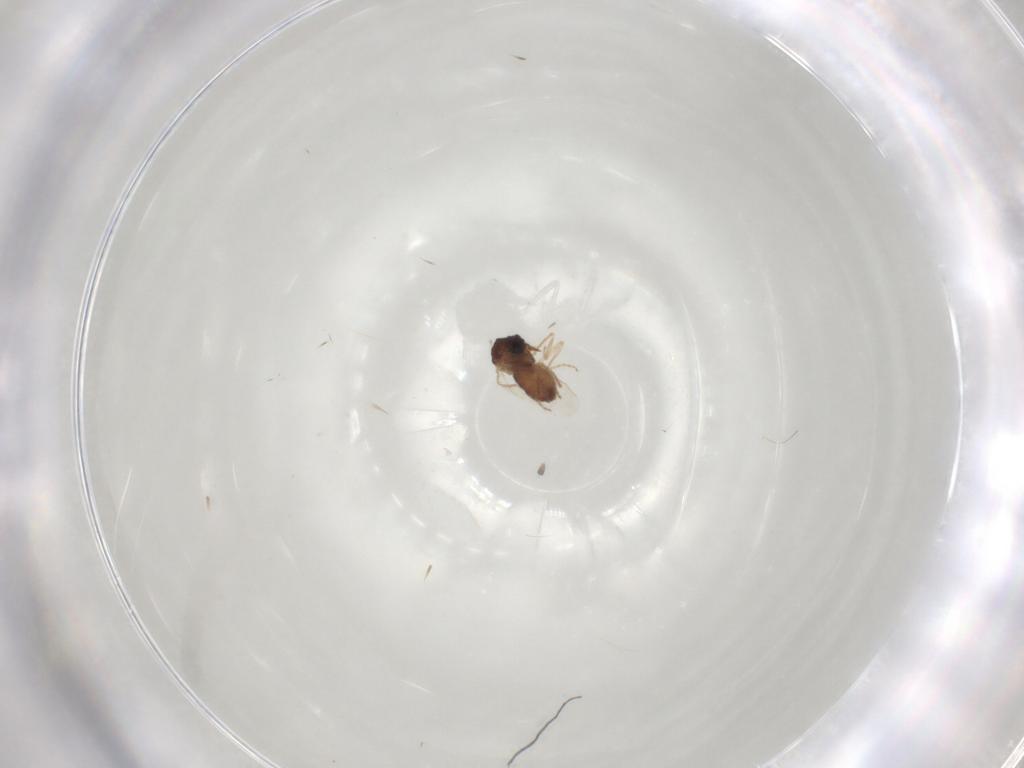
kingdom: Animalia
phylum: Arthropoda
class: Insecta
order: Diptera
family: Ceratopogonidae
